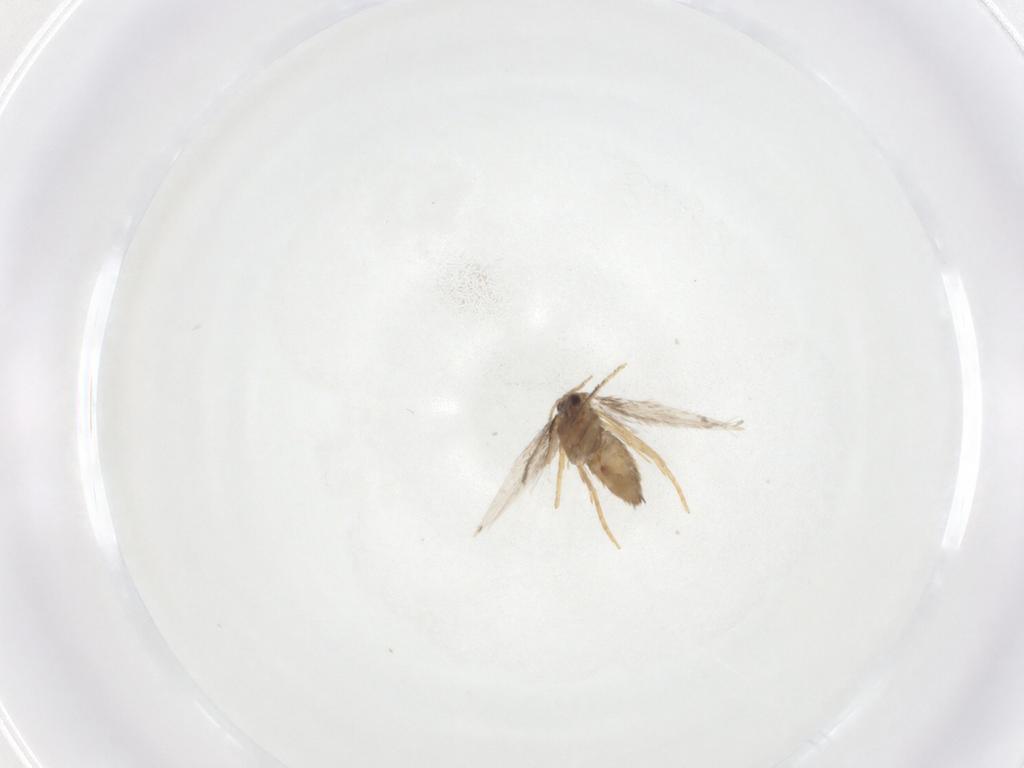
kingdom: Animalia
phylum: Arthropoda
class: Insecta
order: Lepidoptera
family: Nepticulidae
